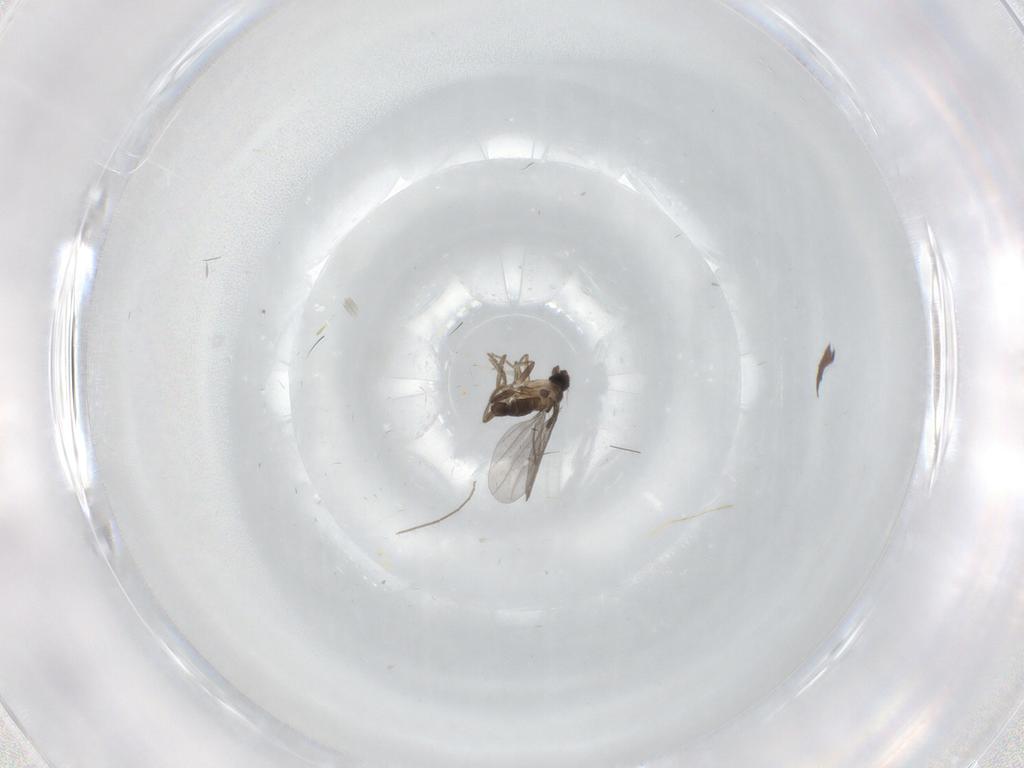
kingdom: Animalia
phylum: Arthropoda
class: Insecta
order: Diptera
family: Chironomidae
